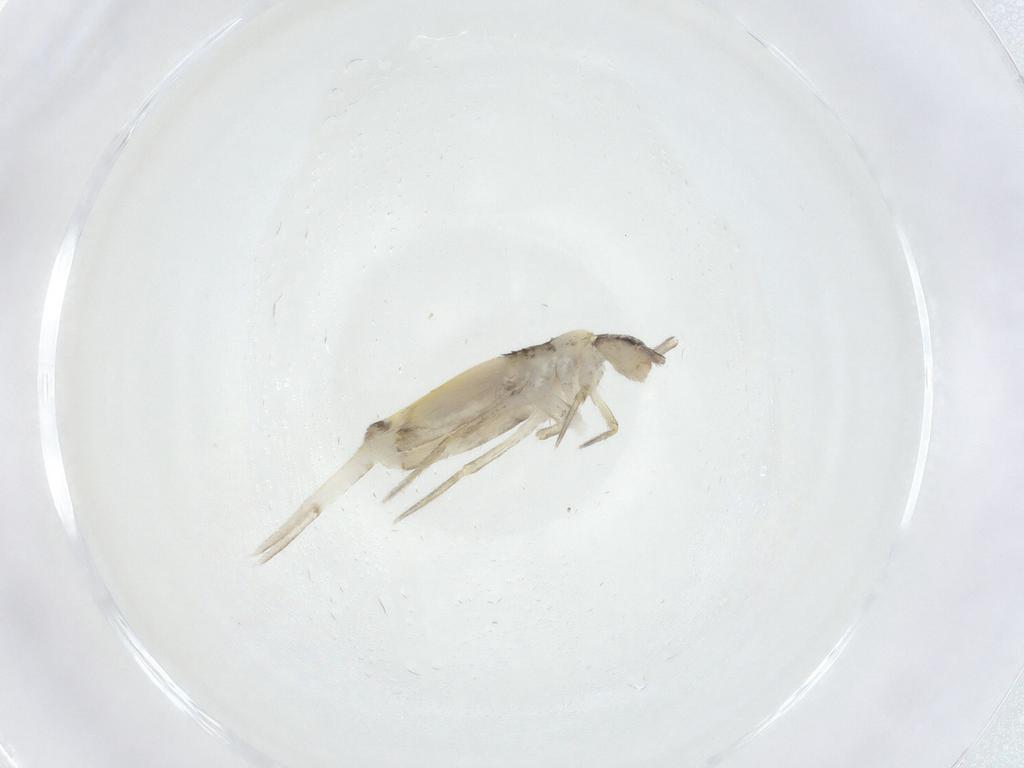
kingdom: Animalia
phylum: Arthropoda
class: Collembola
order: Entomobryomorpha
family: Entomobryidae
